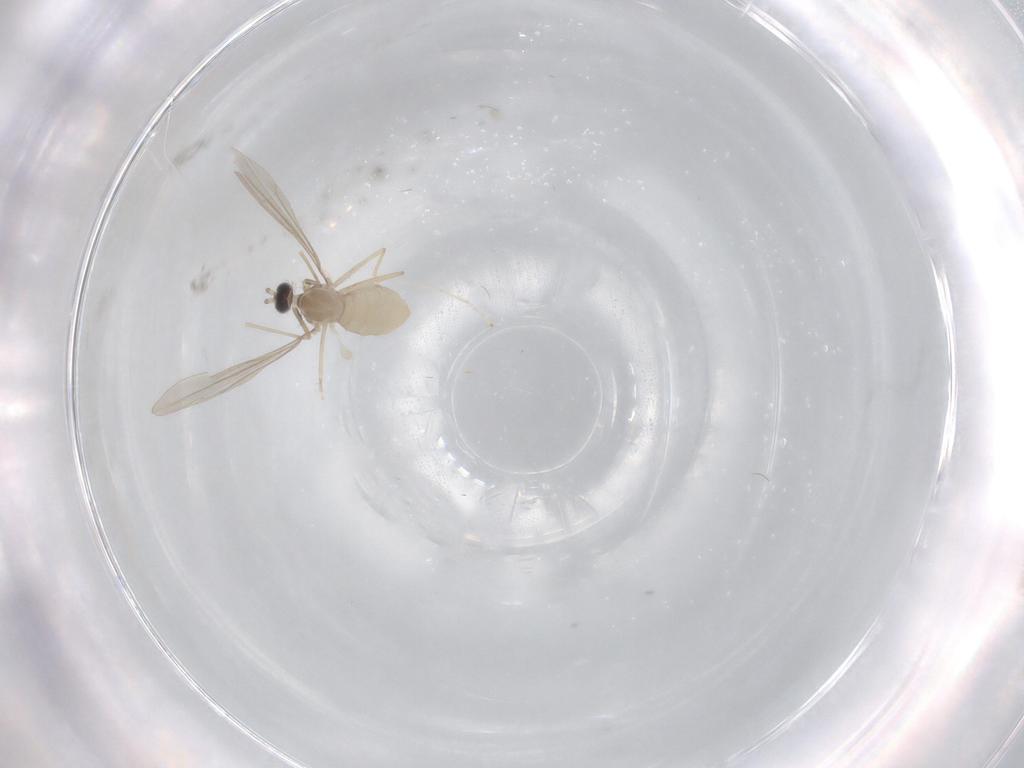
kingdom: Animalia
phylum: Arthropoda
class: Insecta
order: Diptera
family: Cecidomyiidae
